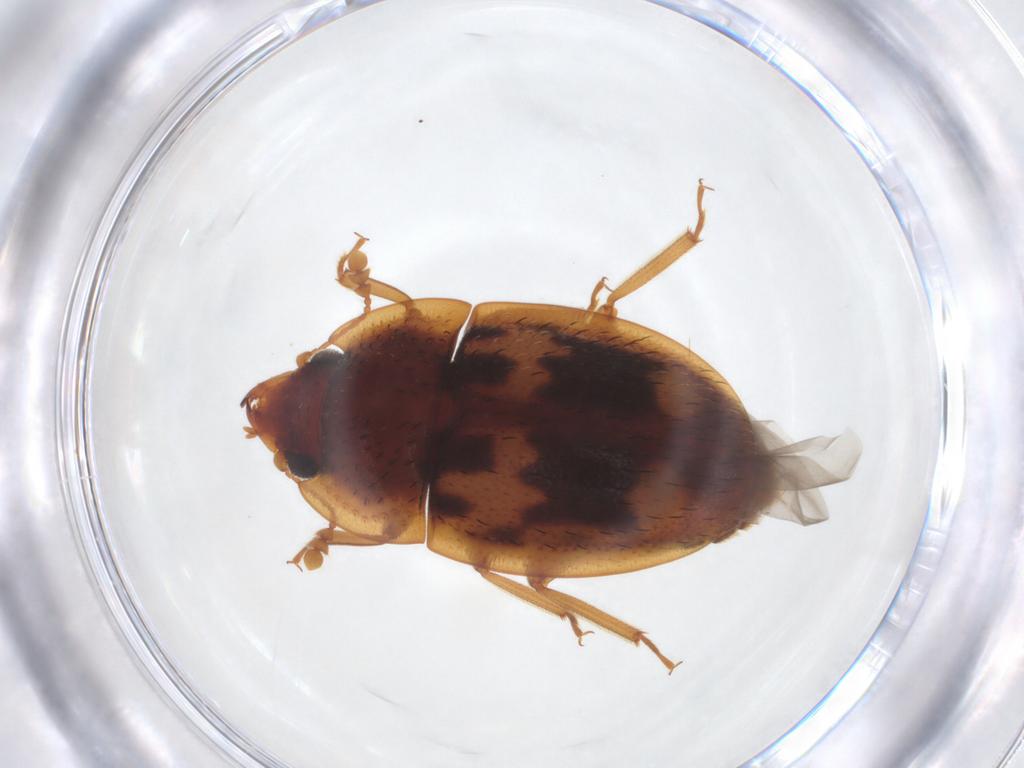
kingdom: Animalia
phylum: Arthropoda
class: Insecta
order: Coleoptera
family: Nitidulidae
